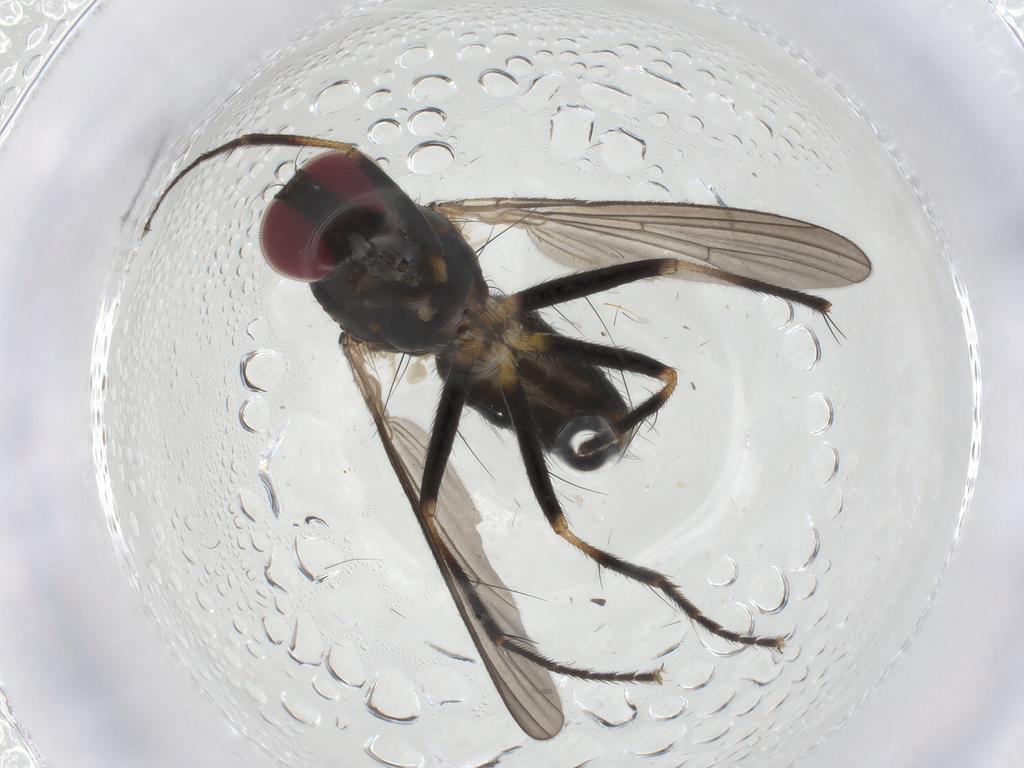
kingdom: Animalia
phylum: Arthropoda
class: Insecta
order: Diptera
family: Anthomyiidae
